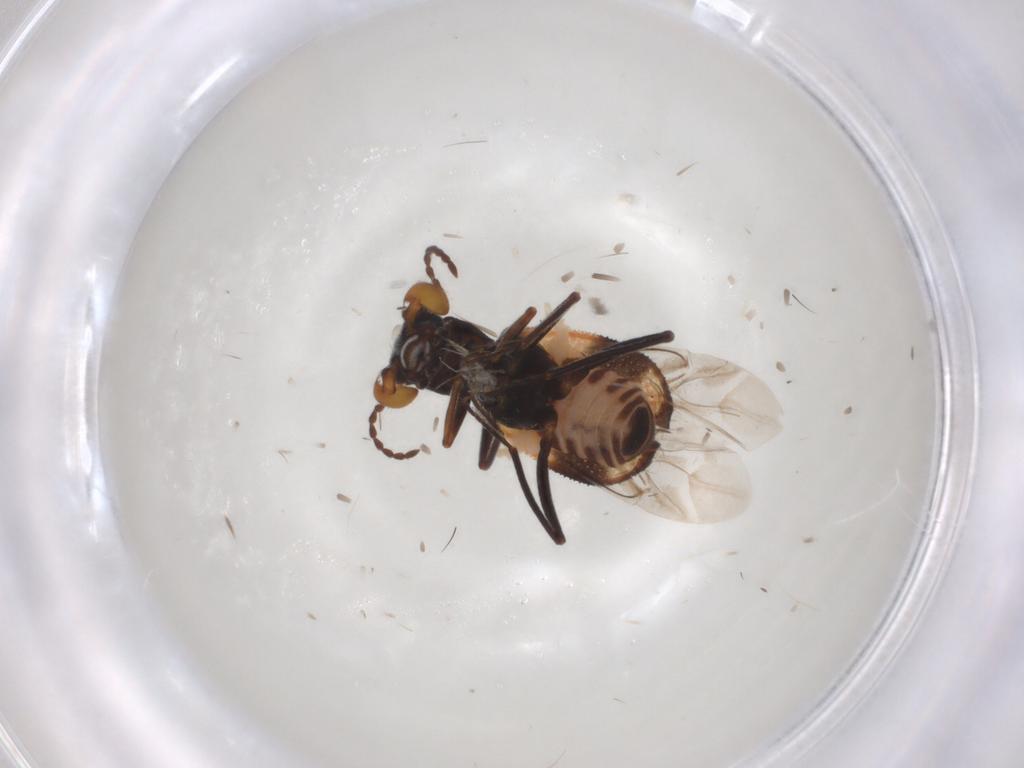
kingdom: Animalia
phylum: Arthropoda
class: Insecta
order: Coleoptera
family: Melyridae
